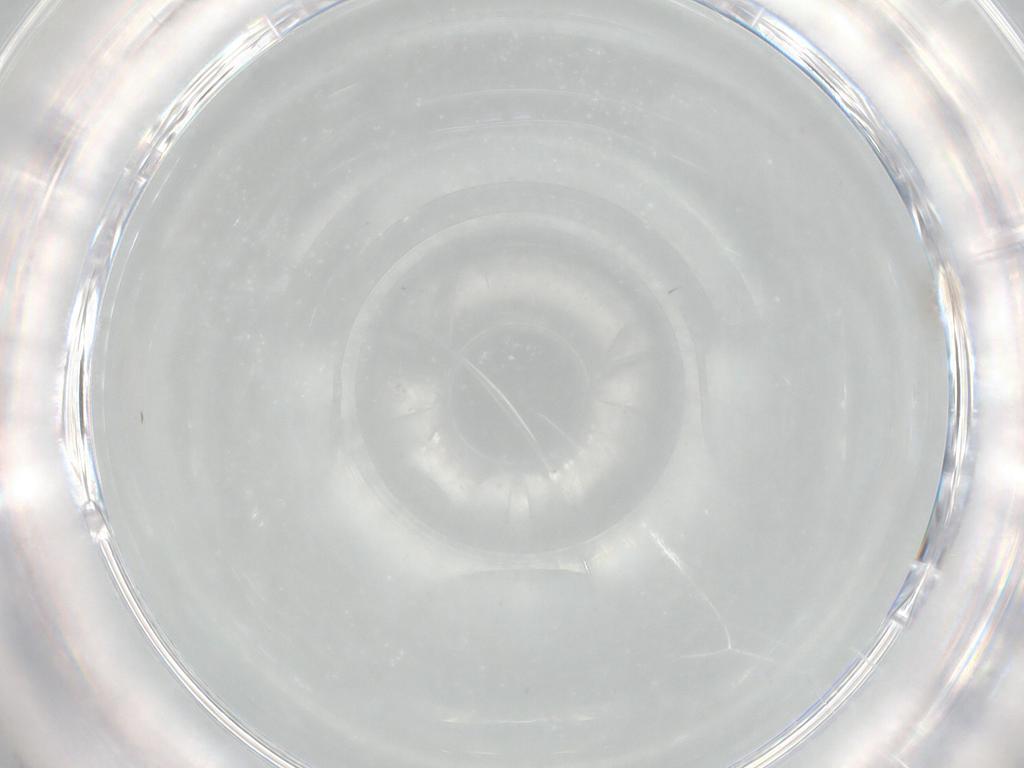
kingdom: Animalia
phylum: Arthropoda
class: Insecta
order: Hymenoptera
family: Trichogrammatidae
